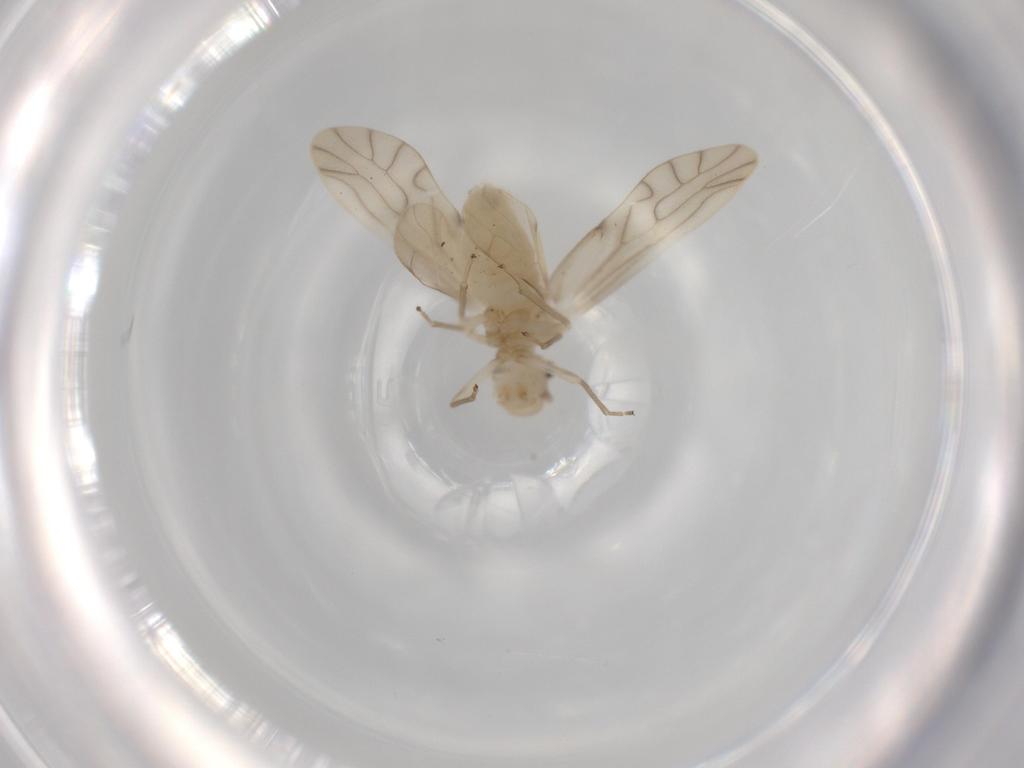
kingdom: Animalia
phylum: Arthropoda
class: Insecta
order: Psocodea
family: Caeciliusidae
